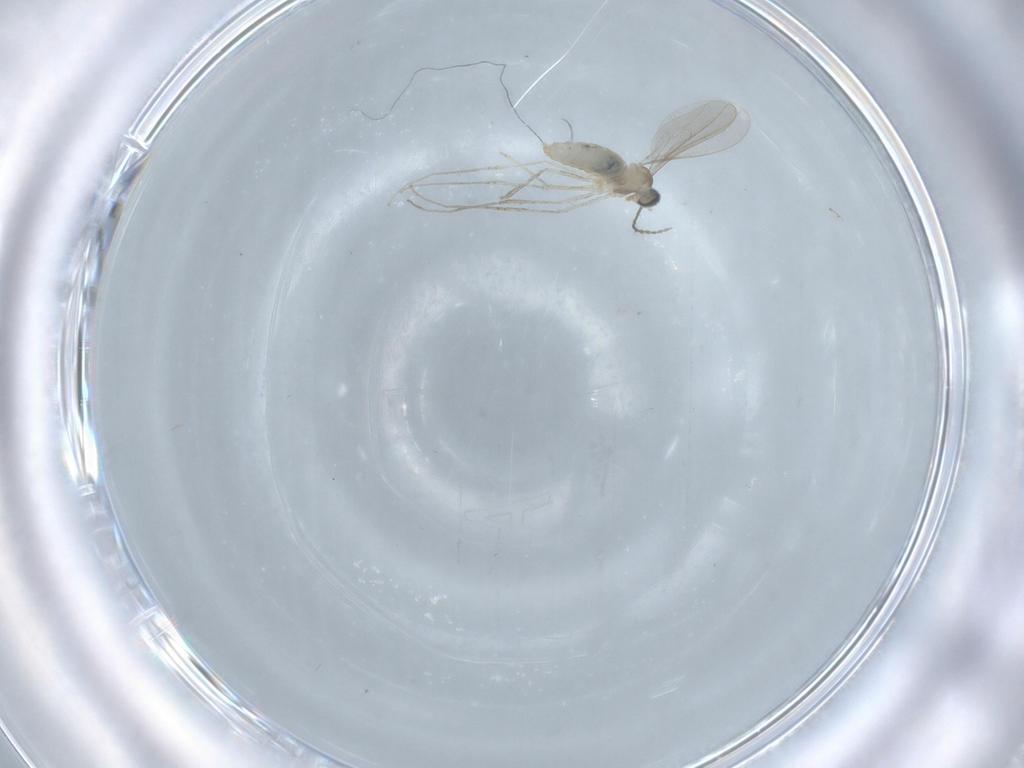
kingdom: Animalia
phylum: Arthropoda
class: Insecta
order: Diptera
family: Cecidomyiidae
